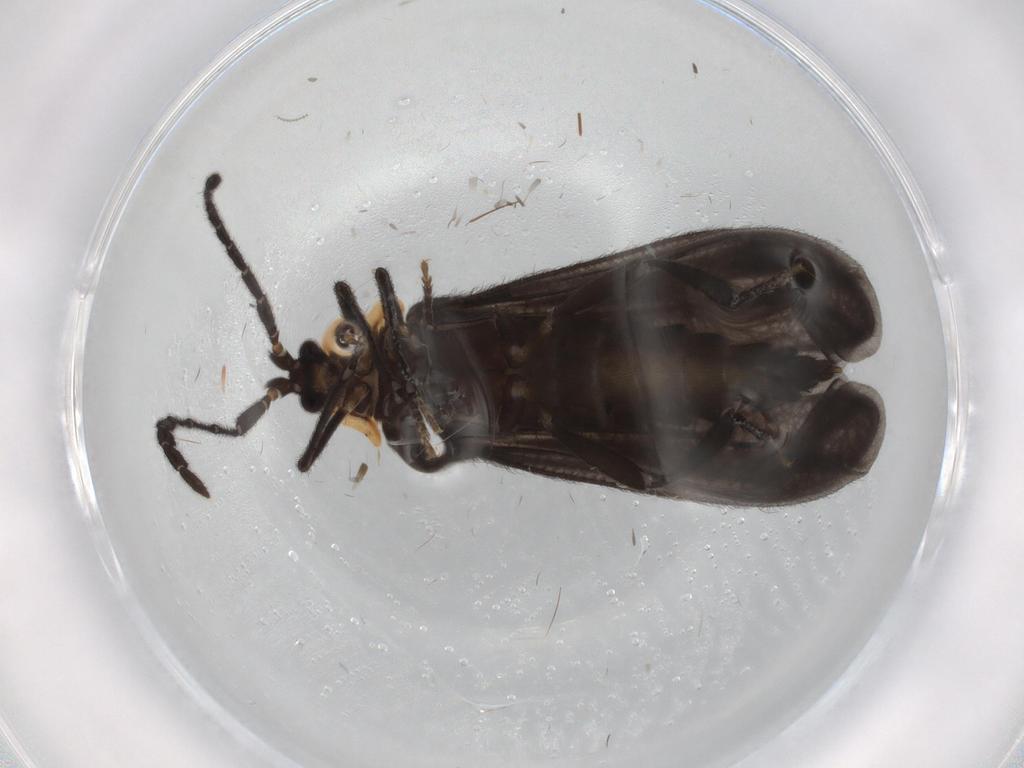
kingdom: Animalia
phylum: Arthropoda
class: Insecta
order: Coleoptera
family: Lycidae
